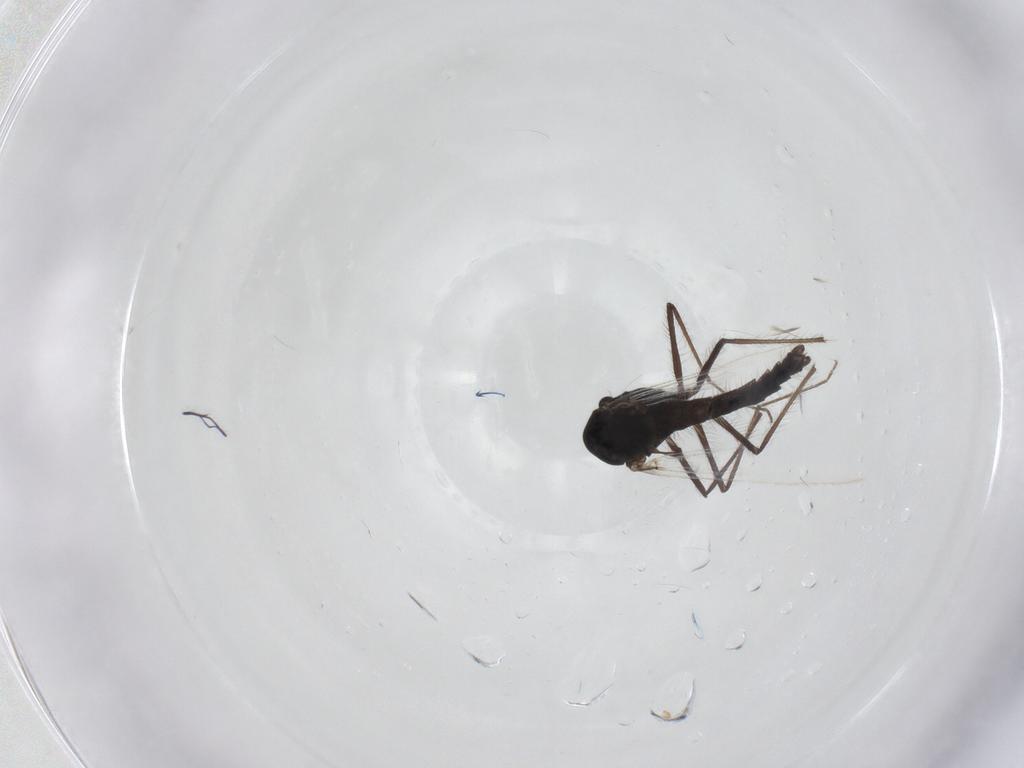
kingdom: Animalia
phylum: Arthropoda
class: Insecta
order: Diptera
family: Chironomidae
